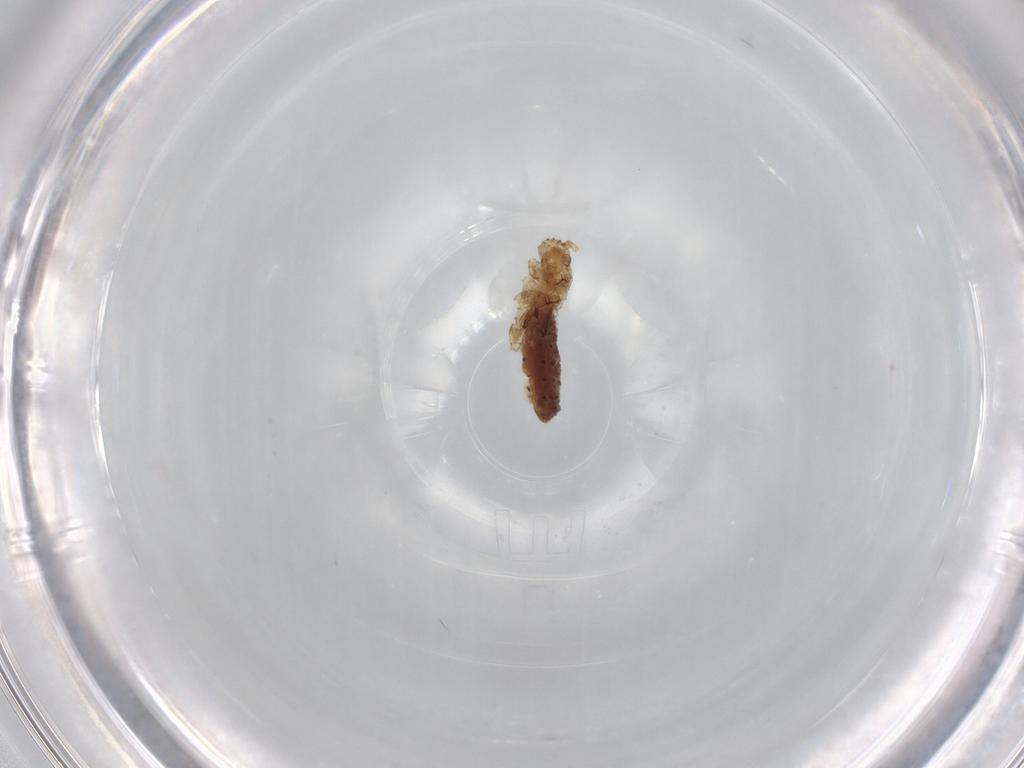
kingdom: Animalia
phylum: Arthropoda
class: Insecta
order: Hemiptera
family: Aphididae
